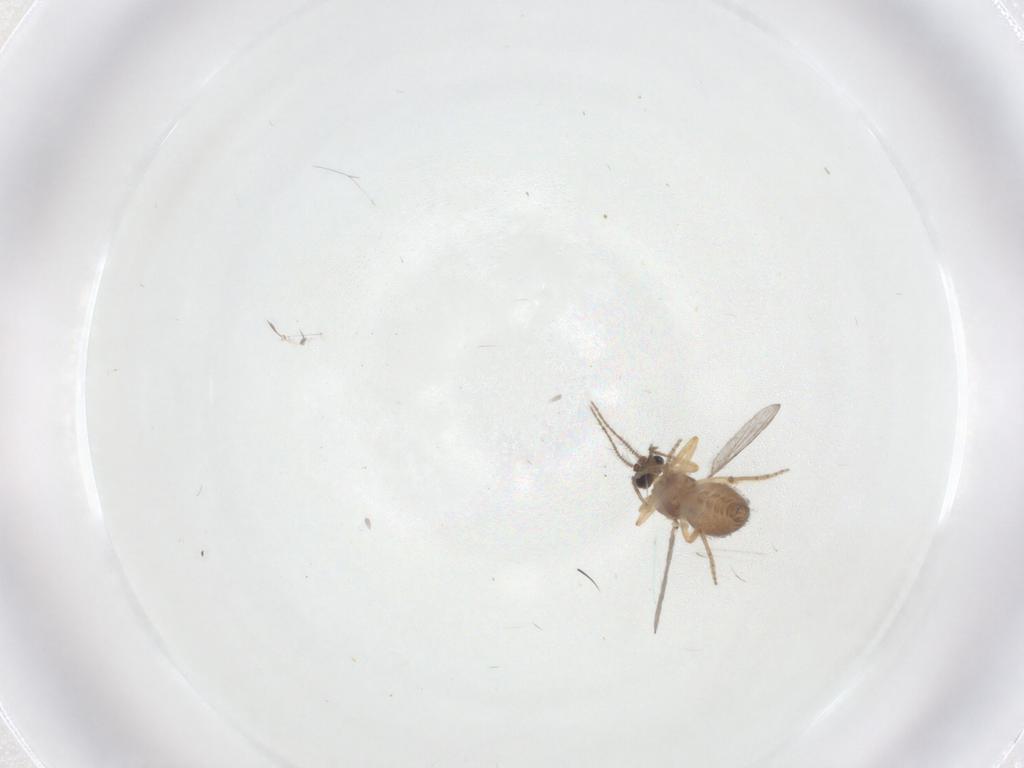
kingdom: Animalia
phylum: Arthropoda
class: Insecta
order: Diptera
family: Ceratopogonidae
